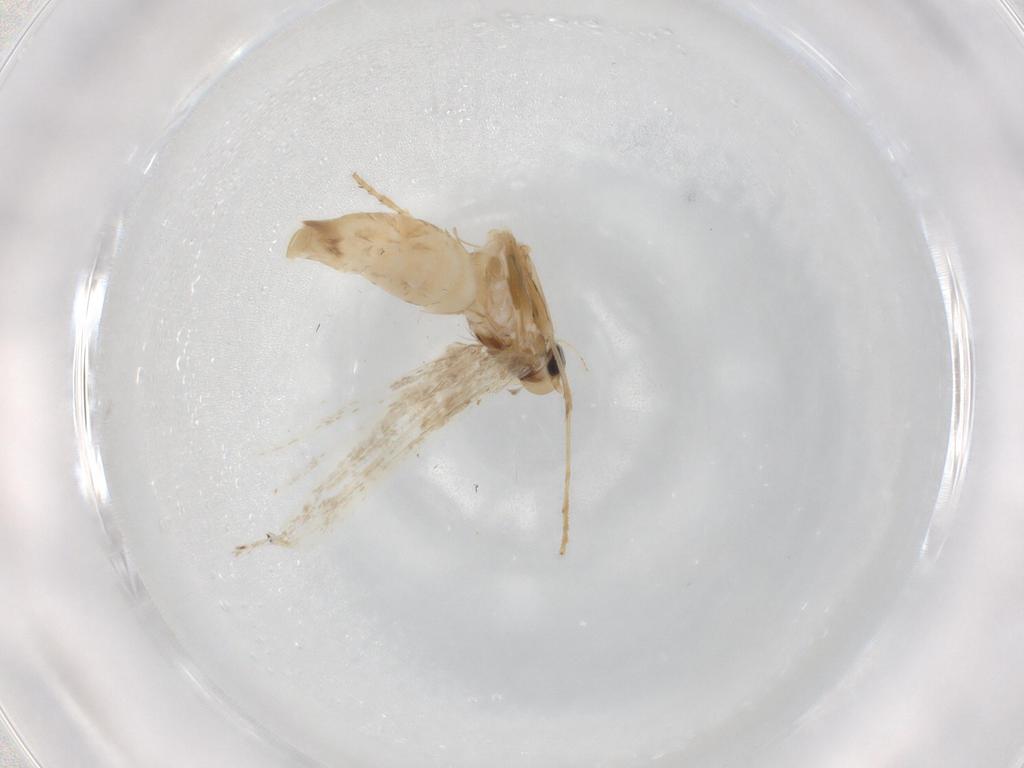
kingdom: Animalia
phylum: Arthropoda
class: Insecta
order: Lepidoptera
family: Gracillariidae
